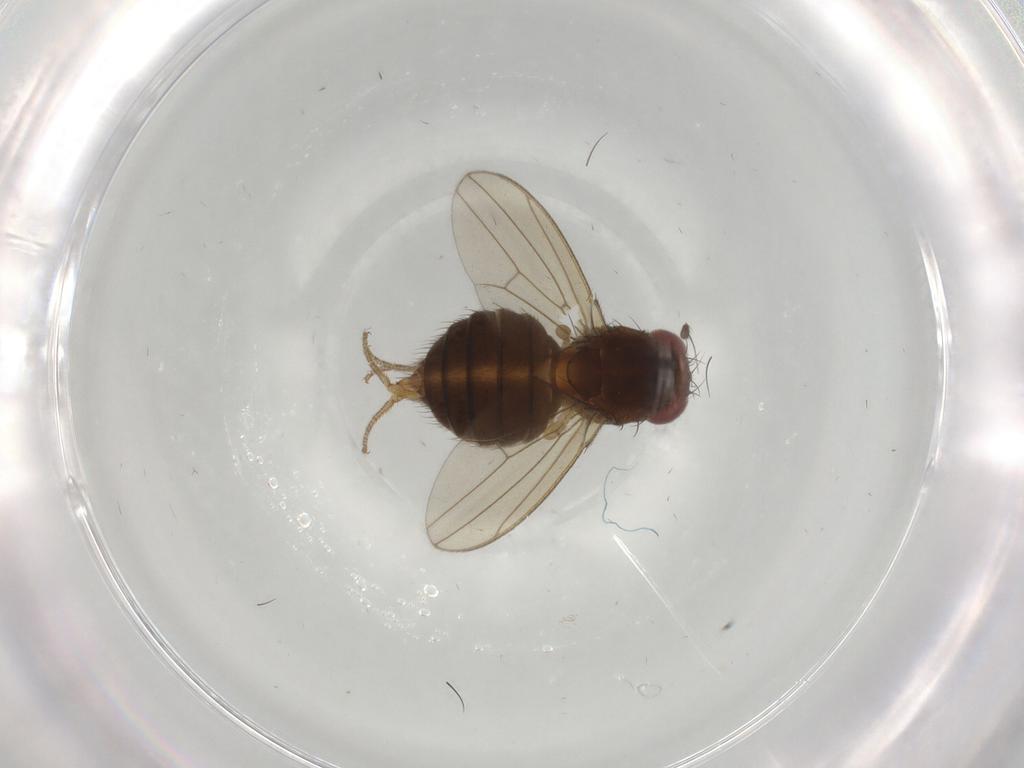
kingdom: Animalia
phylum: Arthropoda
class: Insecta
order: Diptera
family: Drosophilidae
